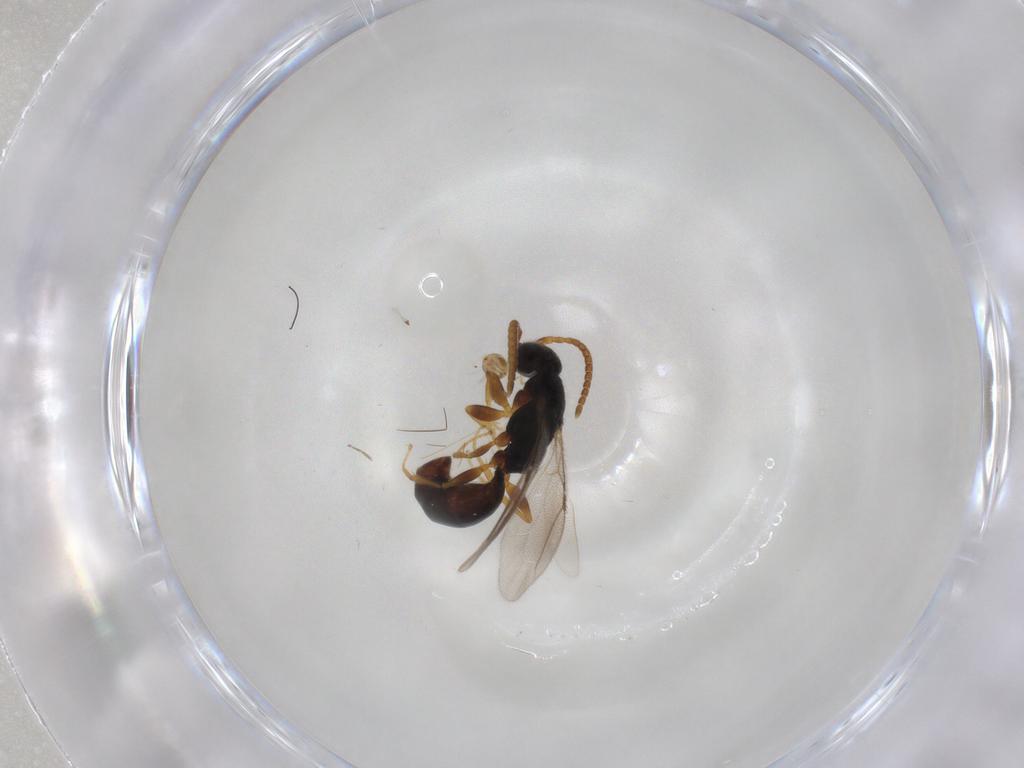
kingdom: Animalia
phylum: Arthropoda
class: Insecta
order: Hymenoptera
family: Bethylidae
